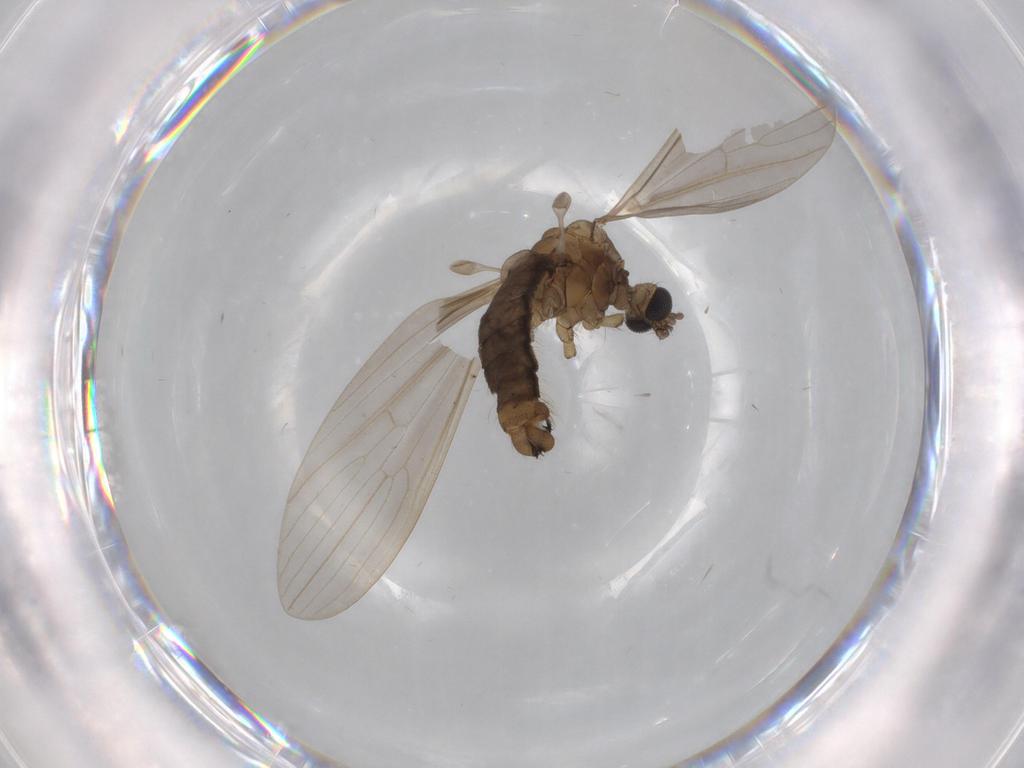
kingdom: Animalia
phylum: Arthropoda
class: Insecta
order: Diptera
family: Limoniidae
